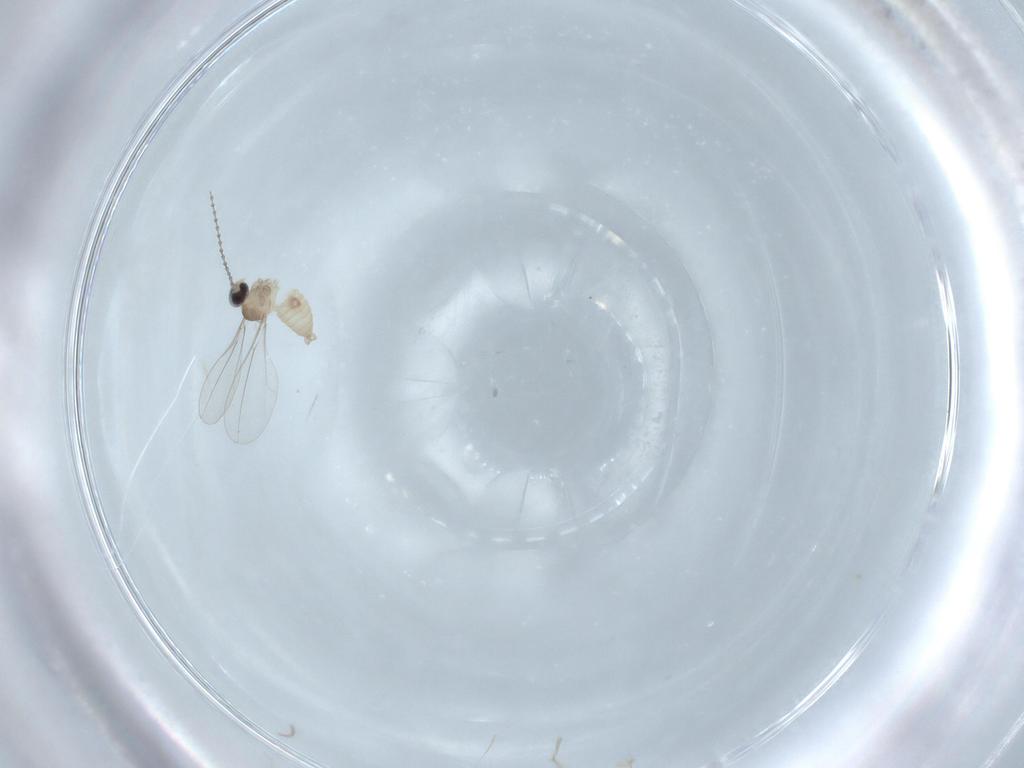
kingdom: Animalia
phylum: Arthropoda
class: Insecta
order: Diptera
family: Cecidomyiidae
